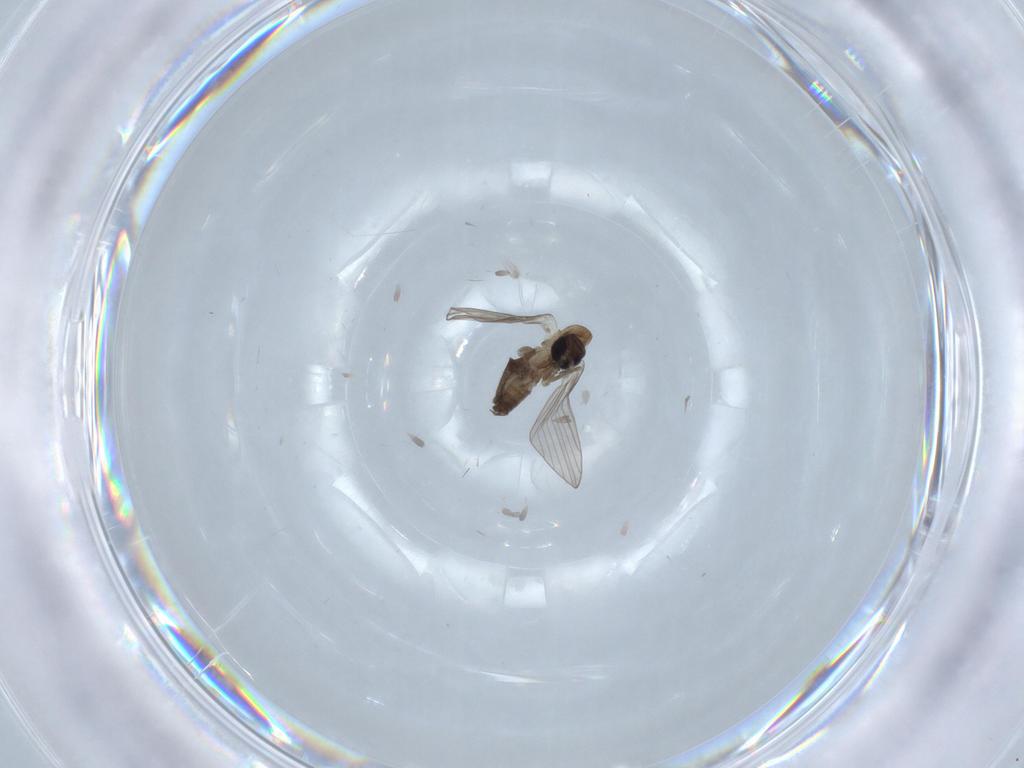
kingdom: Animalia
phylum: Arthropoda
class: Insecta
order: Diptera
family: Psychodidae
